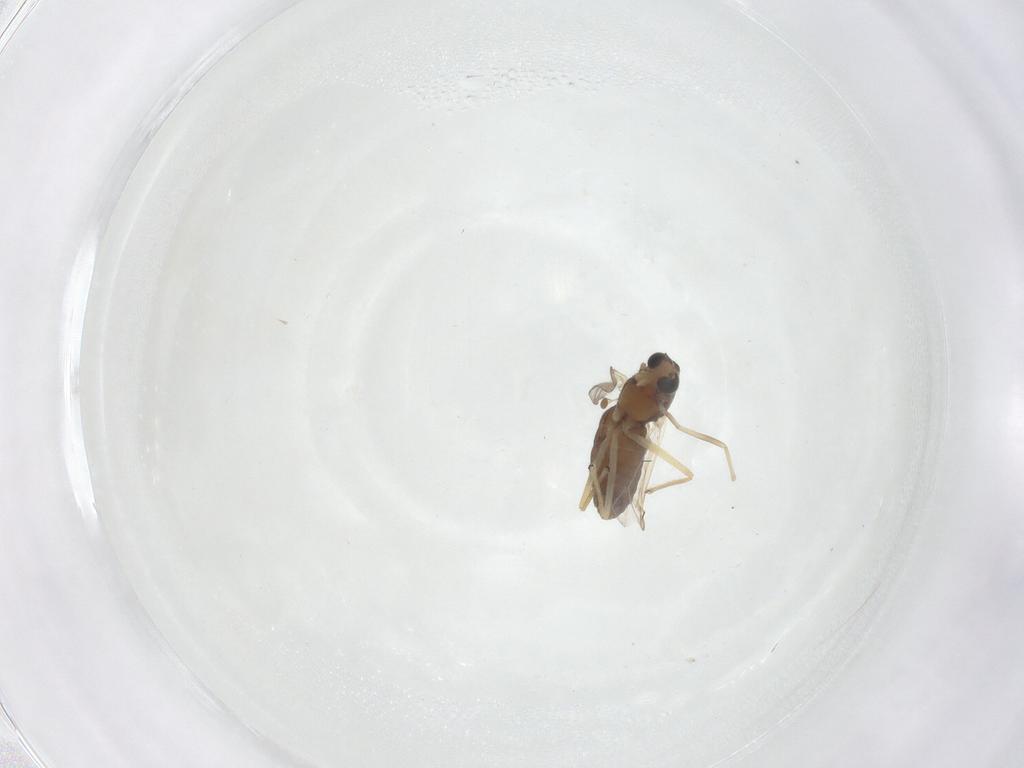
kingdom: Animalia
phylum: Arthropoda
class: Insecta
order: Diptera
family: Chironomidae
